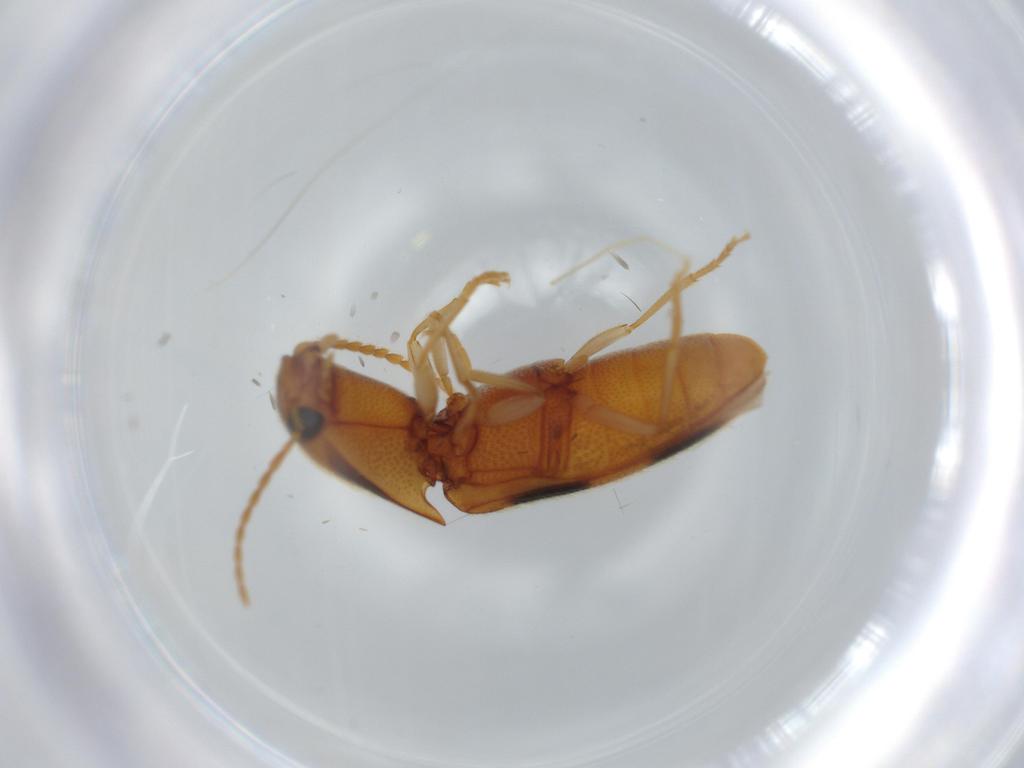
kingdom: Animalia
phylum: Arthropoda
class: Insecta
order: Coleoptera
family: Elateridae
